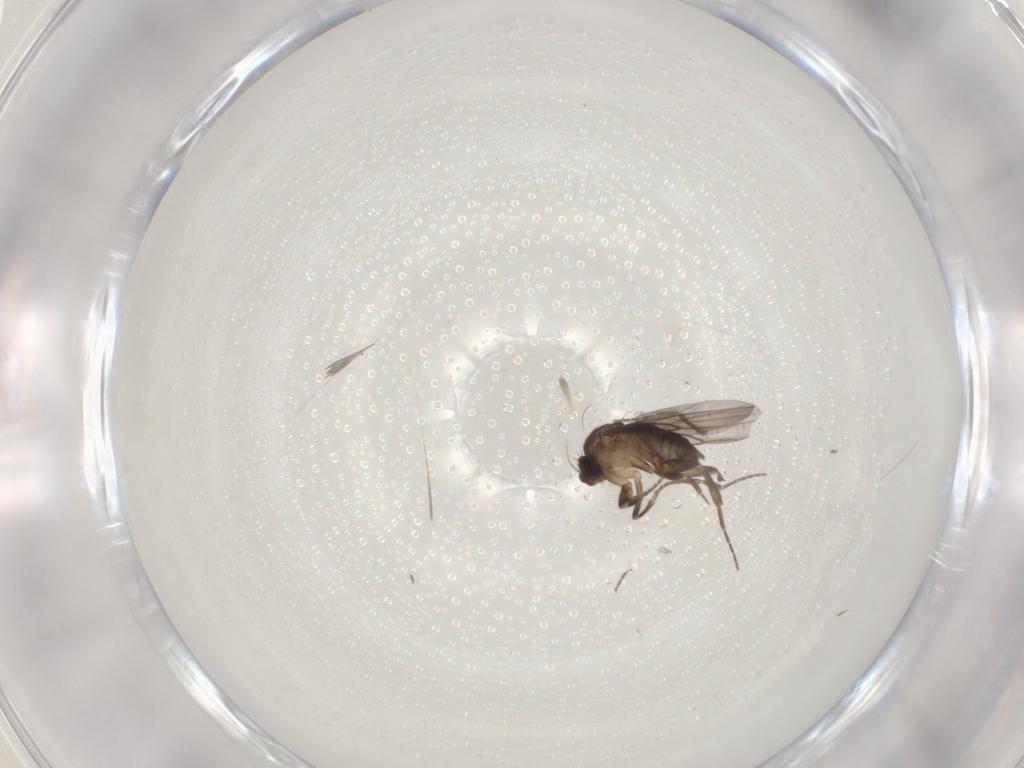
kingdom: Animalia
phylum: Arthropoda
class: Insecta
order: Diptera
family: Phoridae
